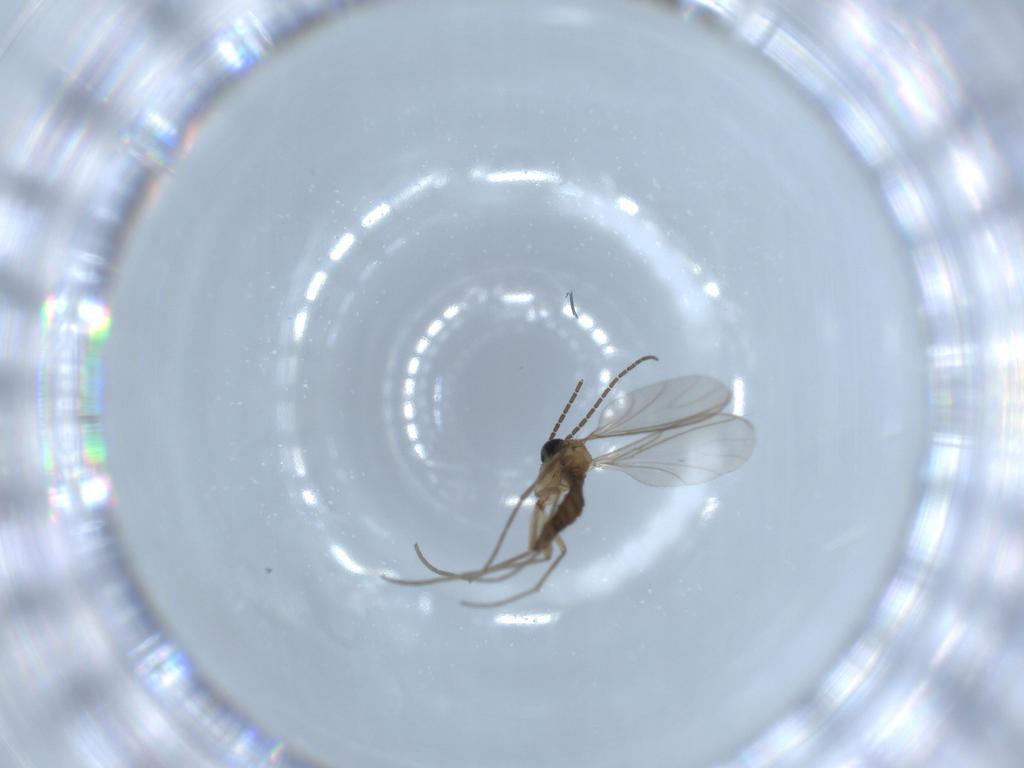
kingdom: Animalia
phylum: Arthropoda
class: Insecta
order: Diptera
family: Sciaridae
